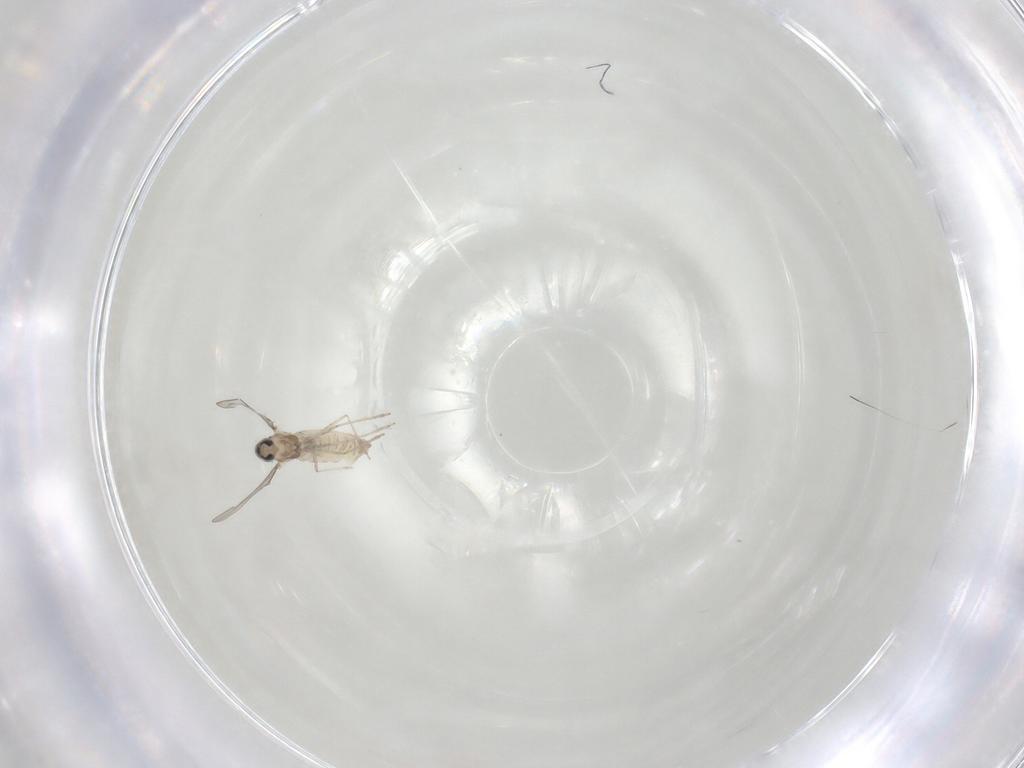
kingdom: Animalia
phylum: Arthropoda
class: Insecta
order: Diptera
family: Cecidomyiidae
